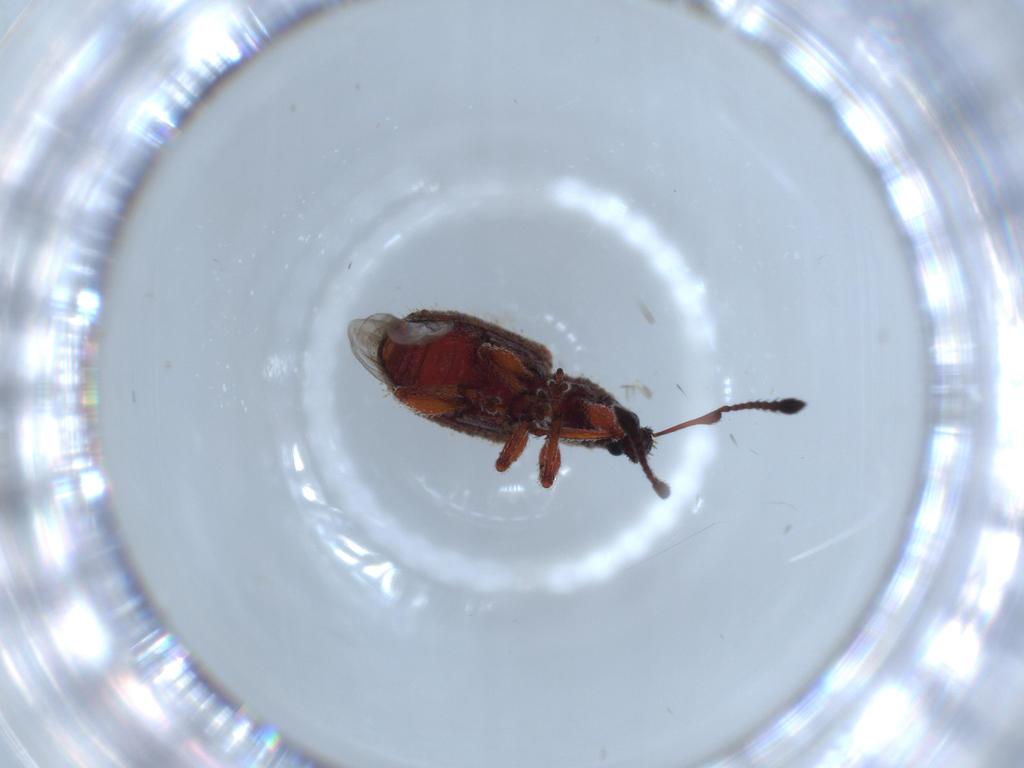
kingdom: Animalia
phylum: Arthropoda
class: Insecta
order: Coleoptera
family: Curculionidae
